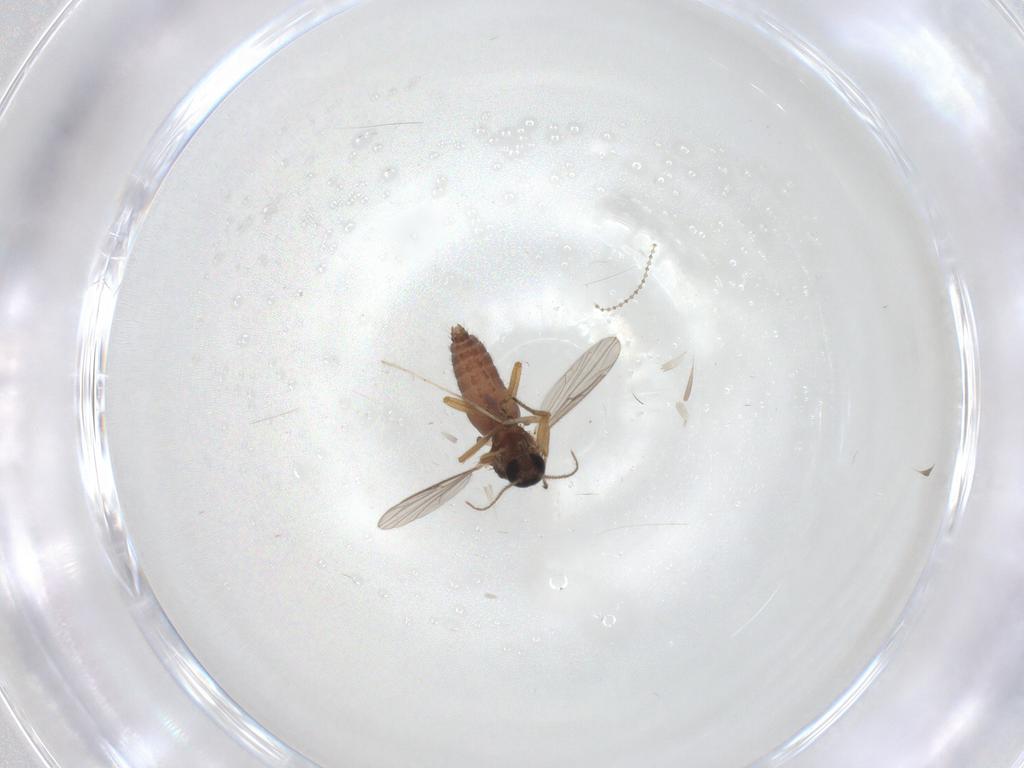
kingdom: Animalia
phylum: Arthropoda
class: Insecta
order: Diptera
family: Ceratopogonidae
